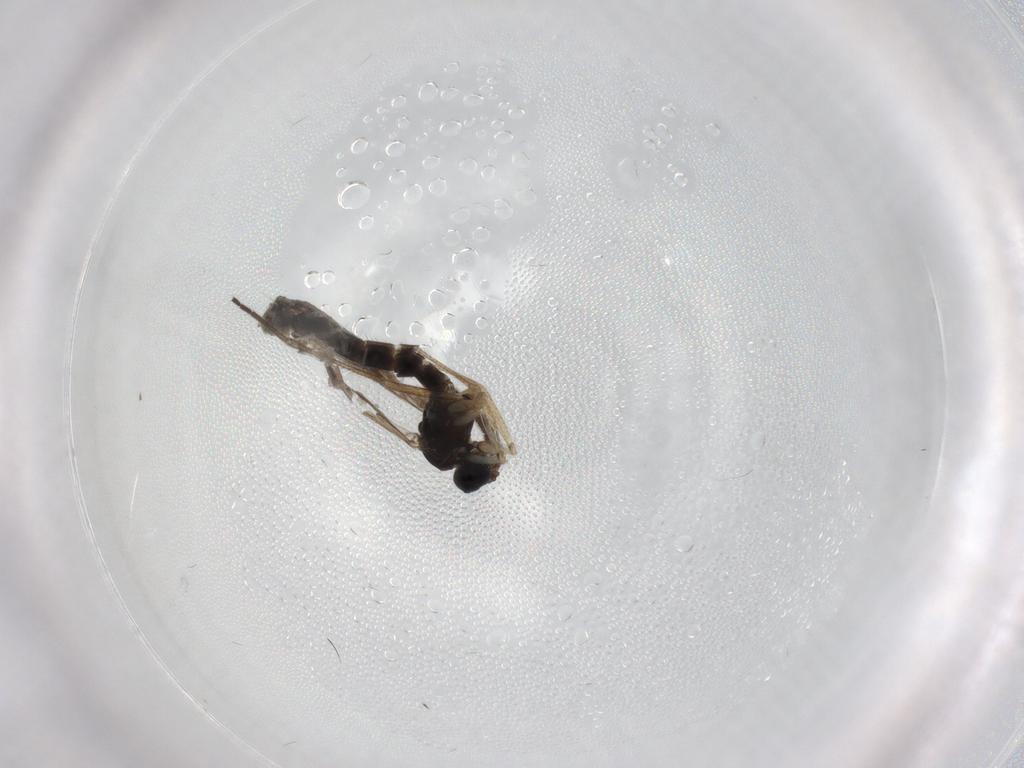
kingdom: Animalia
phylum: Arthropoda
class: Insecta
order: Diptera
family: Sciaridae
